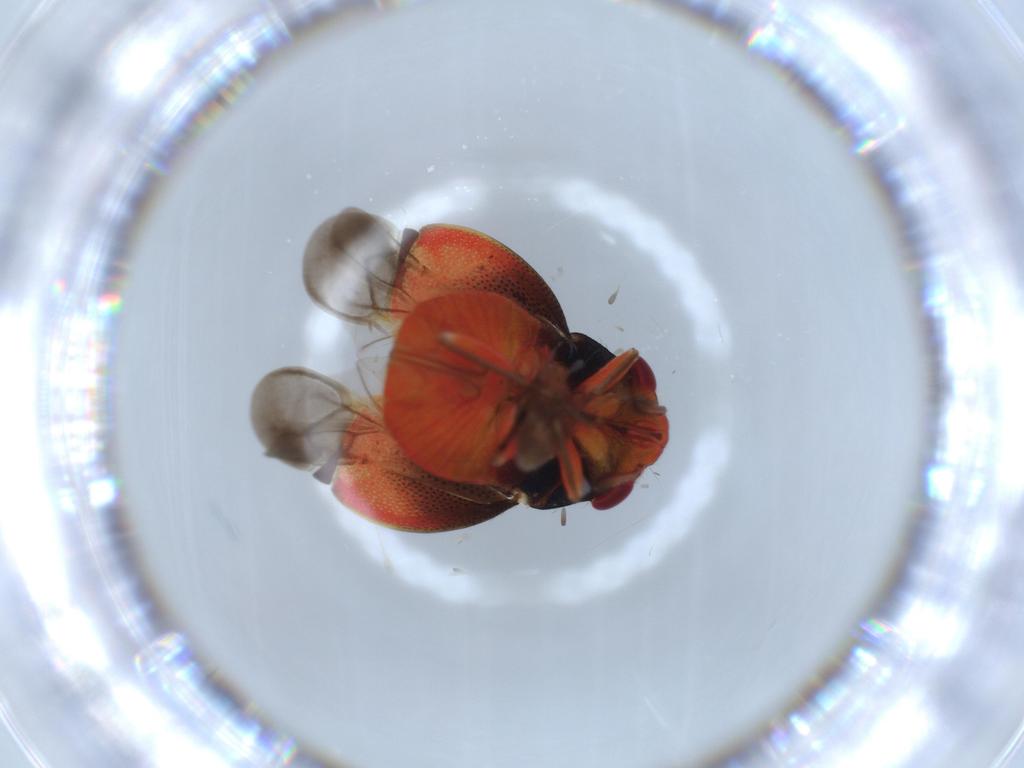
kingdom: Animalia
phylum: Arthropoda
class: Insecta
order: Hemiptera
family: Miridae
